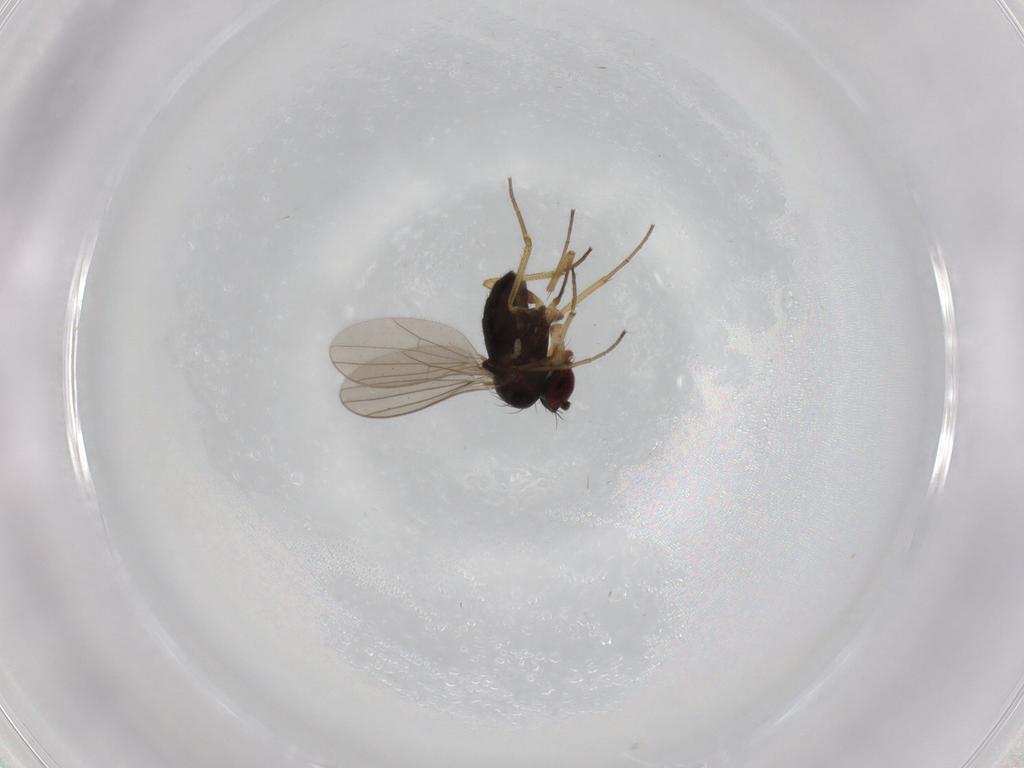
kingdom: Animalia
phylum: Arthropoda
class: Insecta
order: Diptera
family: Dolichopodidae
